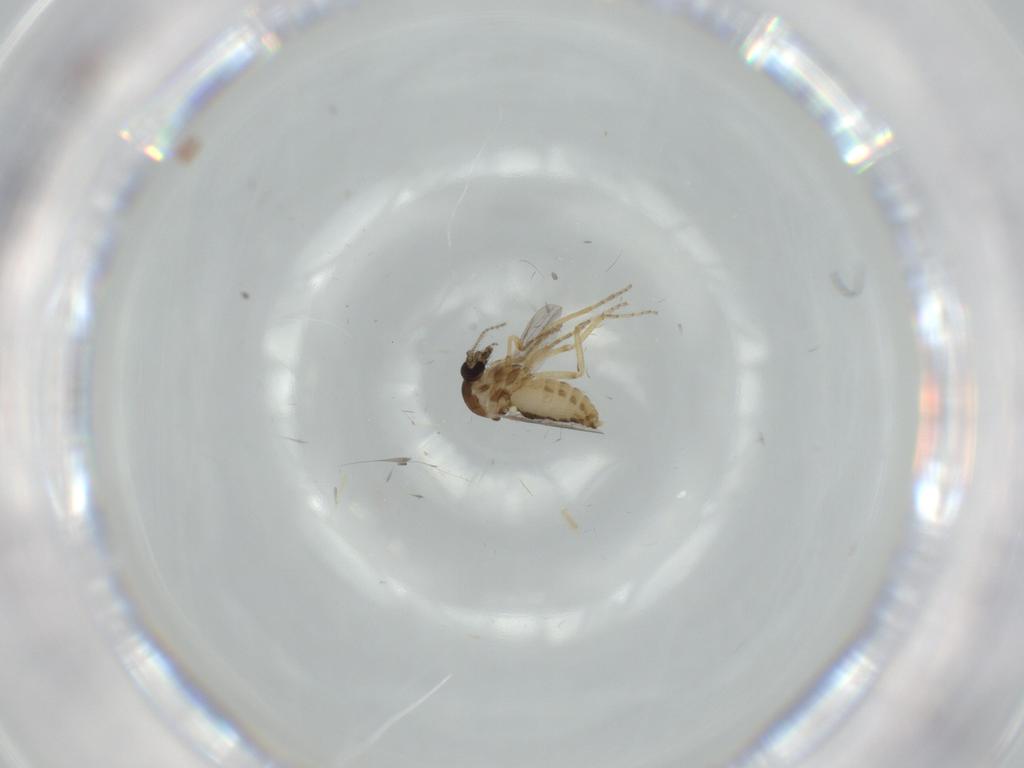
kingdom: Animalia
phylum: Arthropoda
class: Insecta
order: Diptera
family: Ceratopogonidae
